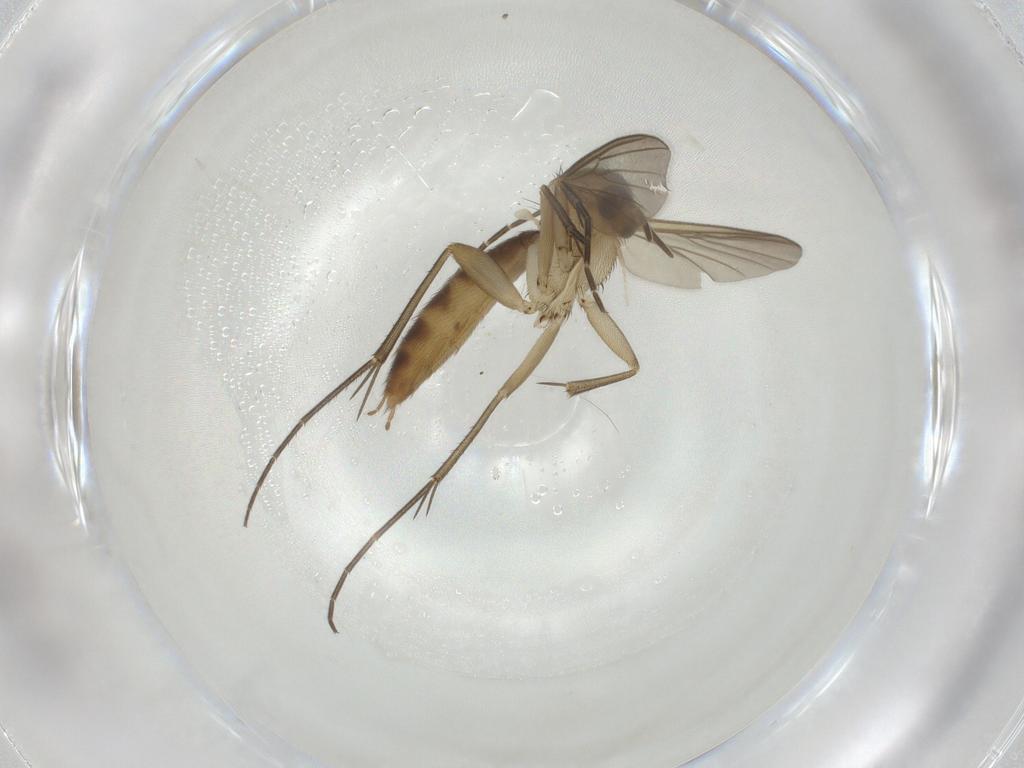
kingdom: Animalia
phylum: Arthropoda
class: Insecta
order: Diptera
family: Mycetophilidae
